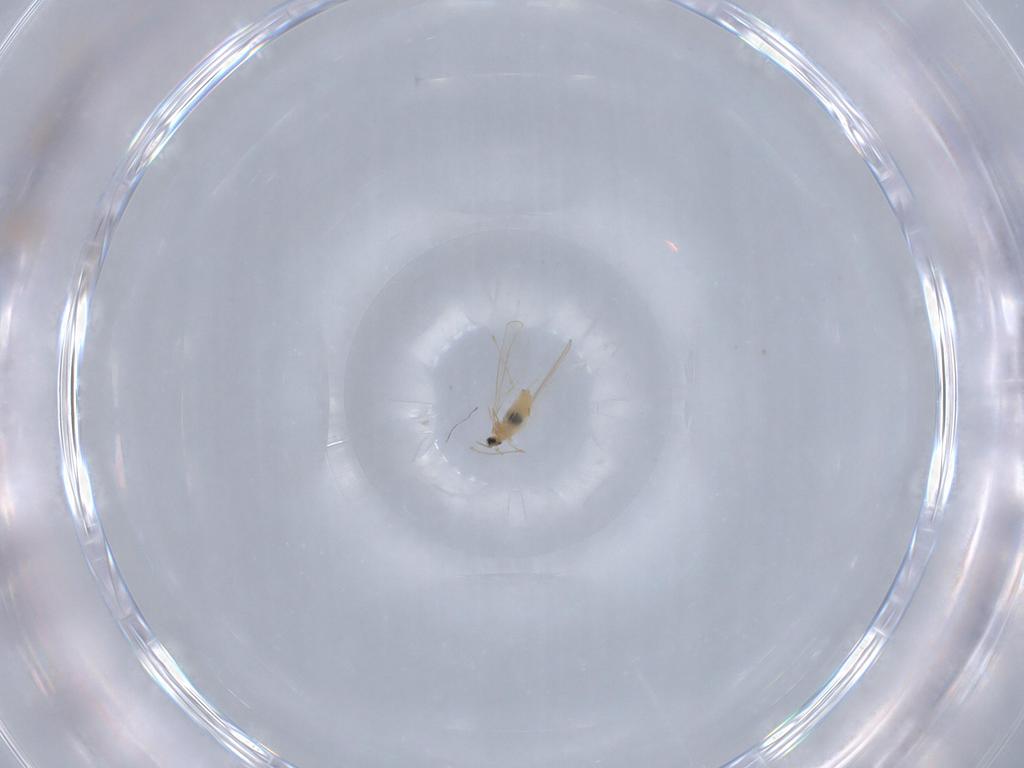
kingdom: Animalia
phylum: Arthropoda
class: Insecta
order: Diptera
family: Cecidomyiidae
